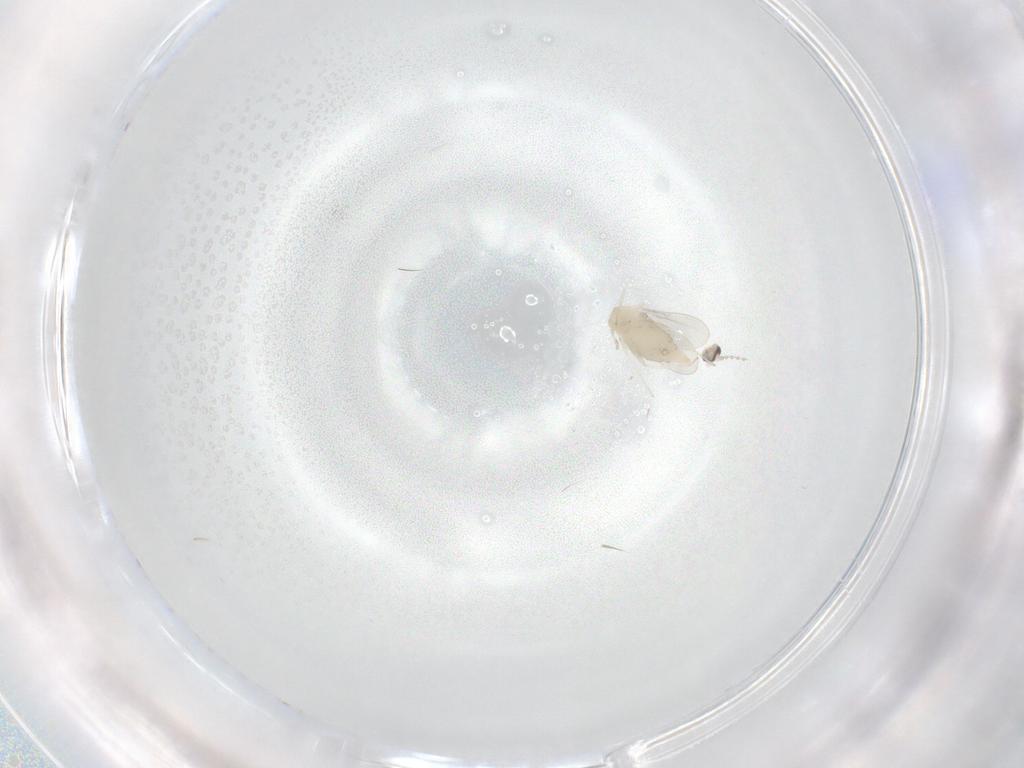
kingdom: Animalia
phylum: Arthropoda
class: Insecta
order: Diptera
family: Cecidomyiidae
